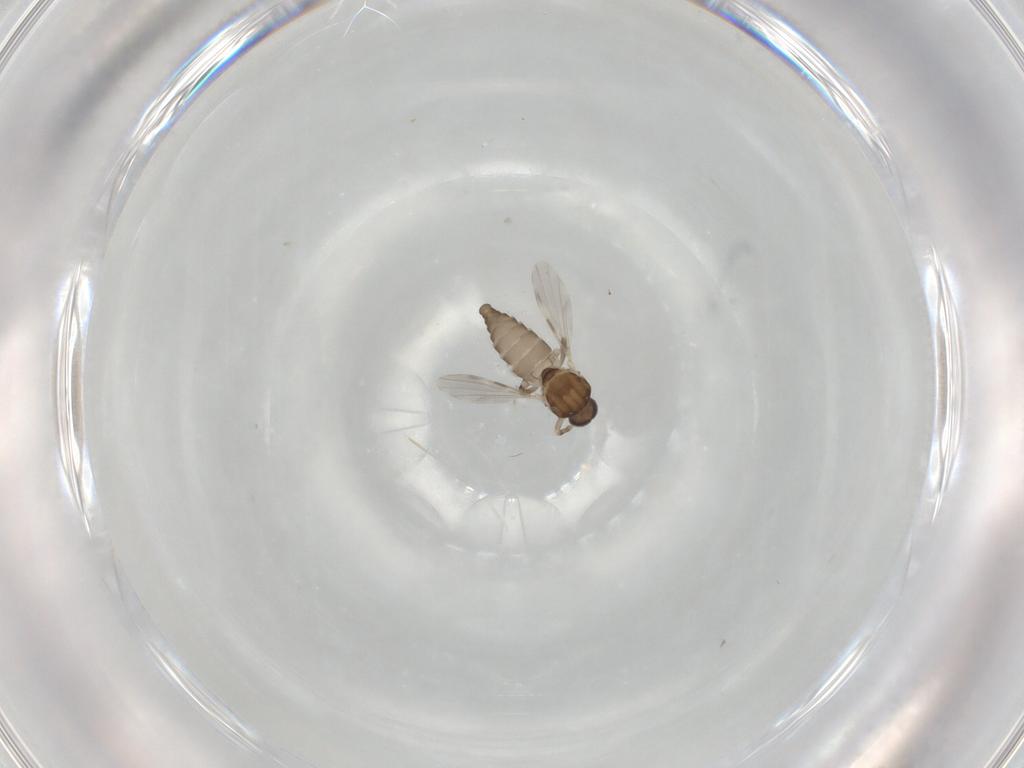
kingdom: Animalia
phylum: Arthropoda
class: Insecta
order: Diptera
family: Ceratopogonidae
